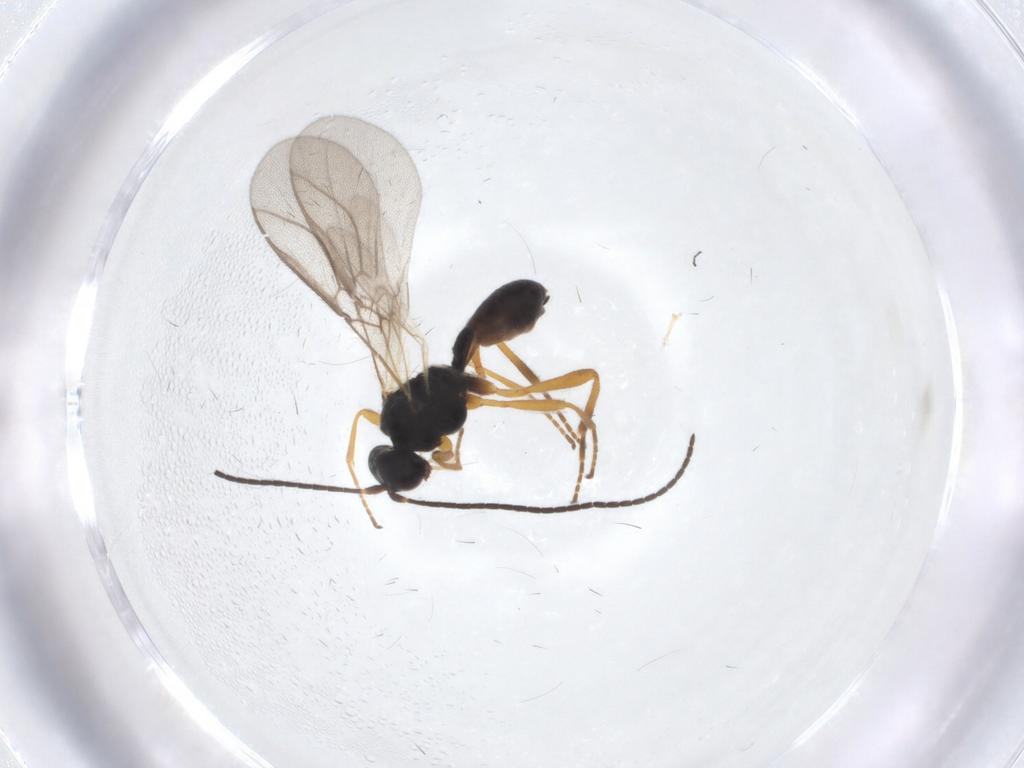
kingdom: Animalia
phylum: Arthropoda
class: Insecta
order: Hymenoptera
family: Braconidae
